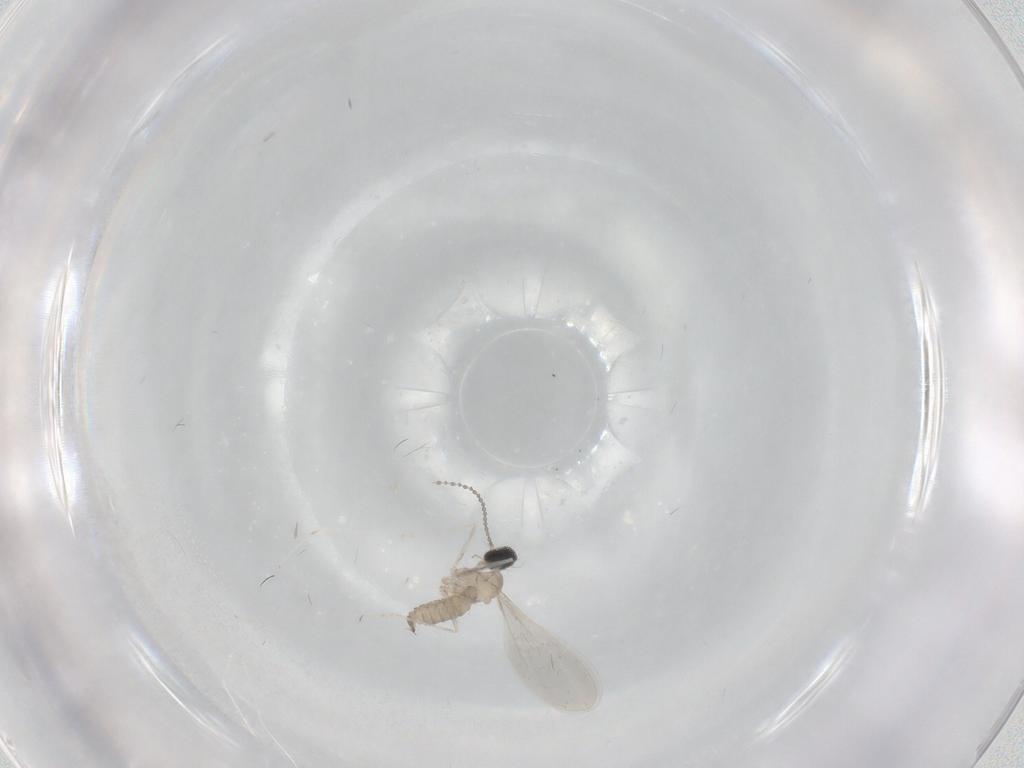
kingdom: Animalia
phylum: Arthropoda
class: Insecta
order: Diptera
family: Cecidomyiidae
